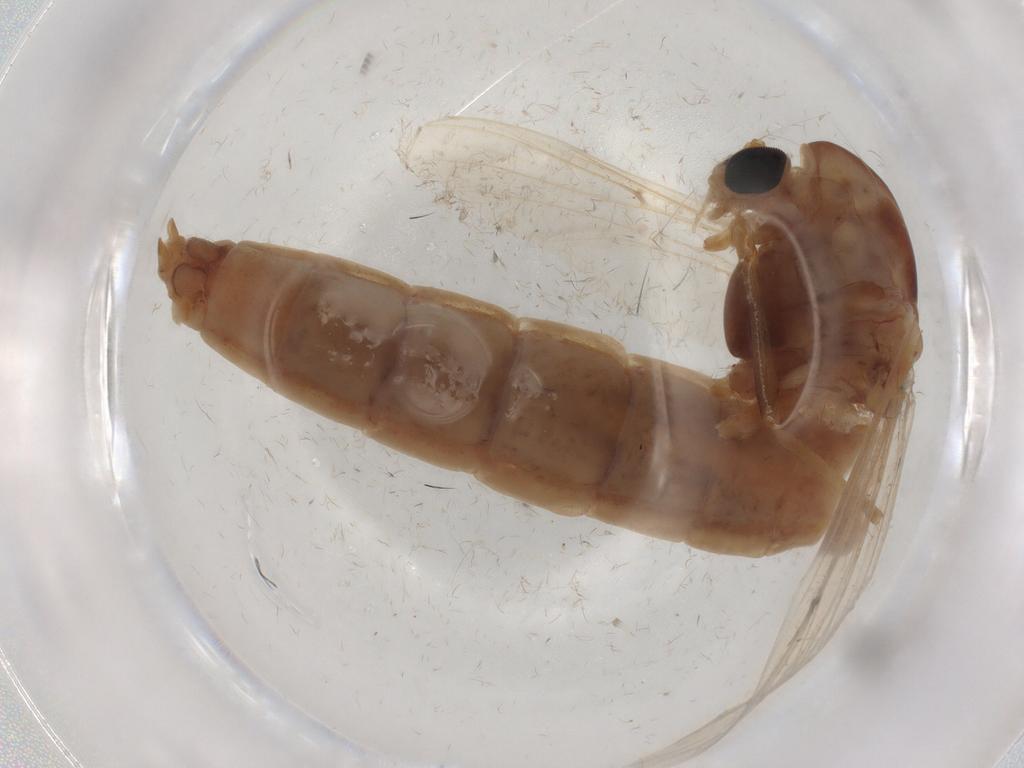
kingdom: Animalia
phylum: Arthropoda
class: Insecta
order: Diptera
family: Chironomidae
